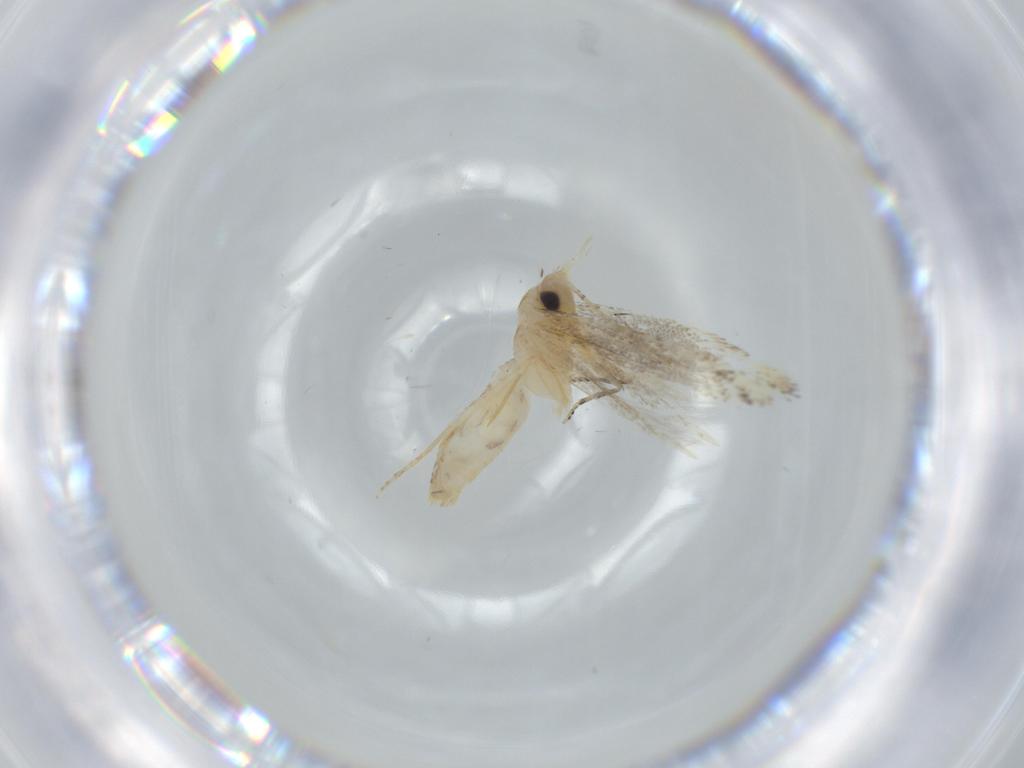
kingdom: Animalia
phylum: Arthropoda
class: Insecta
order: Lepidoptera
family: Bucculatricidae
